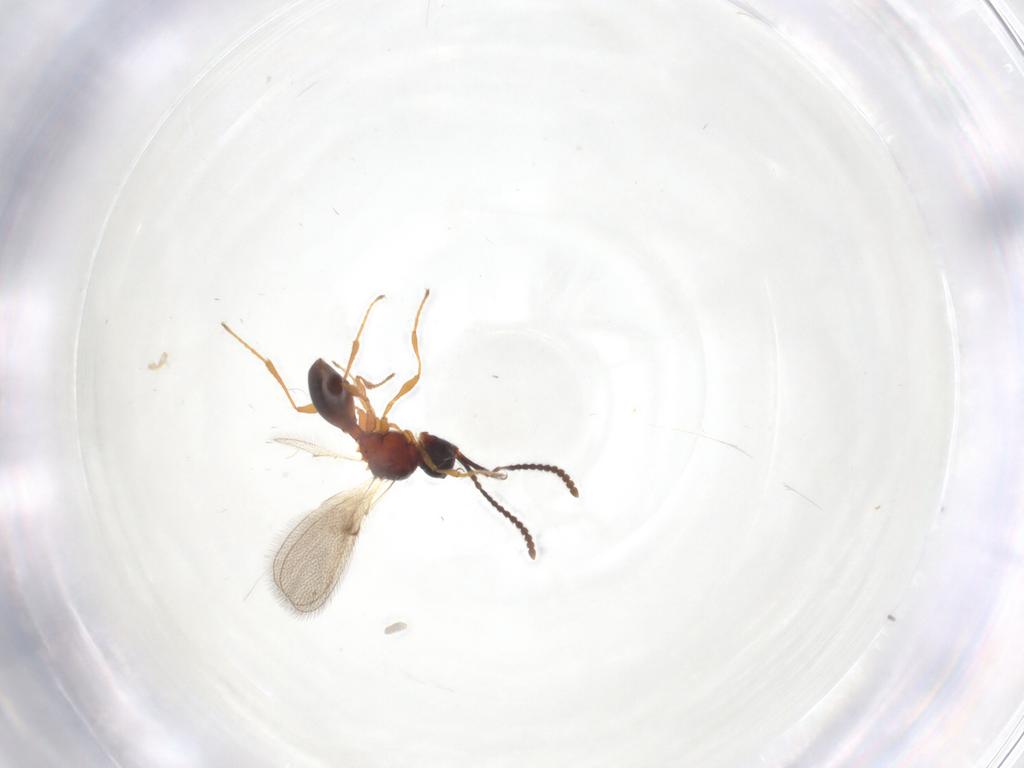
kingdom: Animalia
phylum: Arthropoda
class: Insecta
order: Hymenoptera
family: Diapriidae
